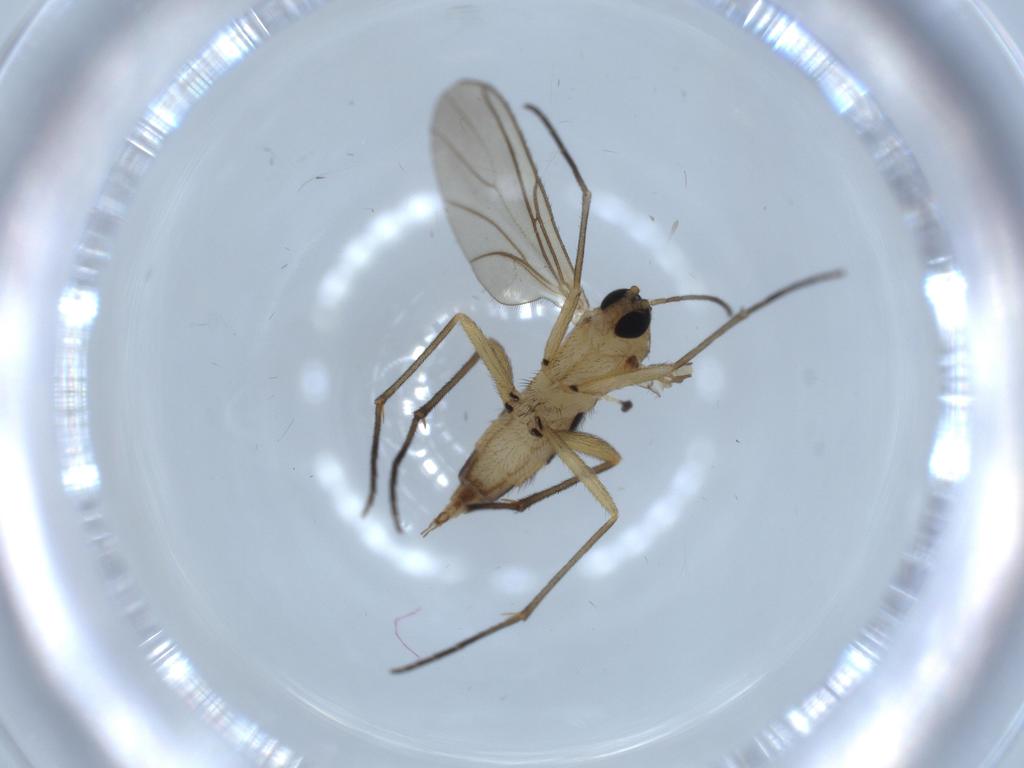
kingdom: Animalia
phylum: Arthropoda
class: Insecta
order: Diptera
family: Sciaridae
